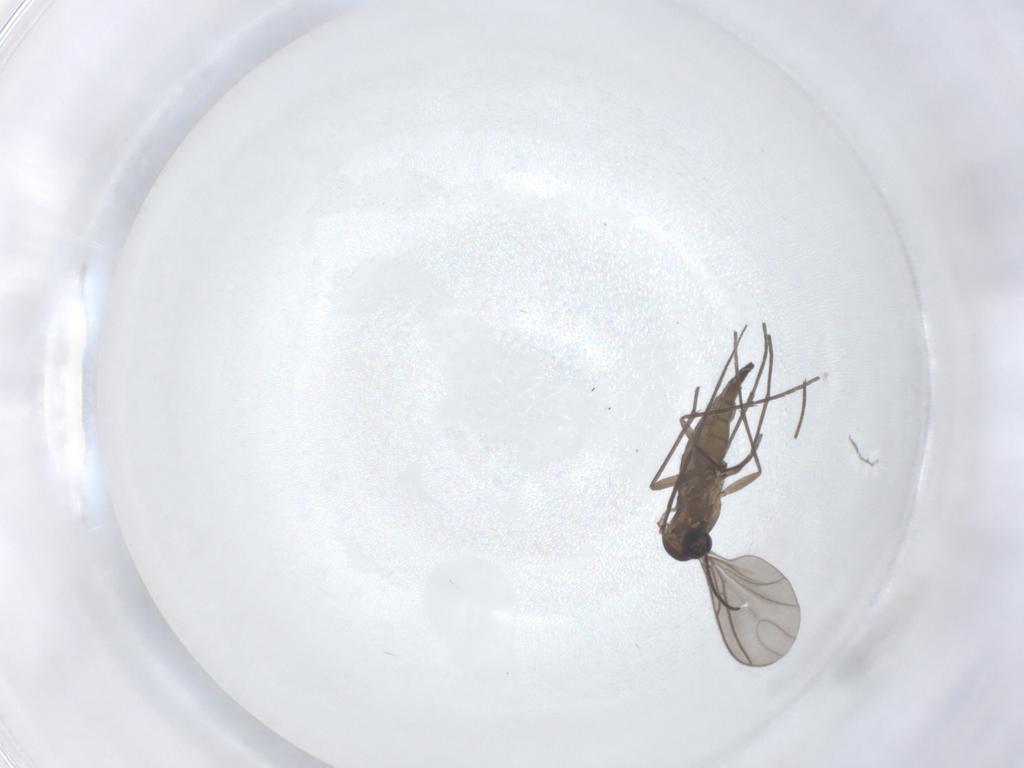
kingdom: Animalia
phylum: Arthropoda
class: Insecta
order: Diptera
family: Sciaridae
